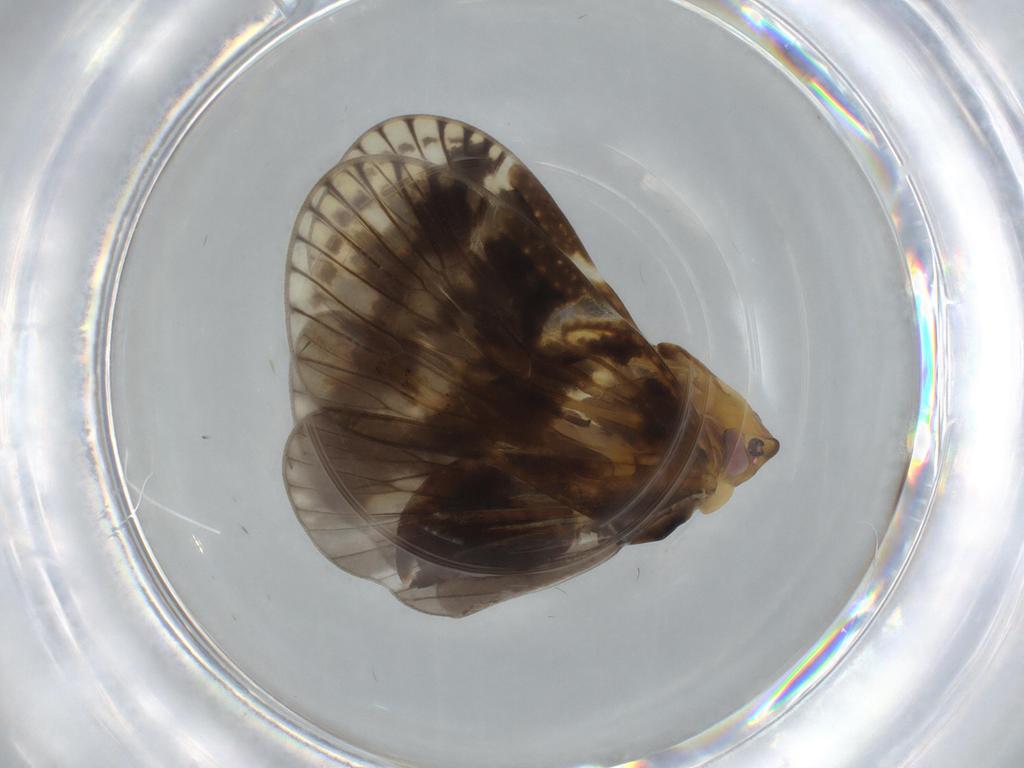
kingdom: Animalia
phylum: Arthropoda
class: Insecta
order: Hemiptera
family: Cixiidae
